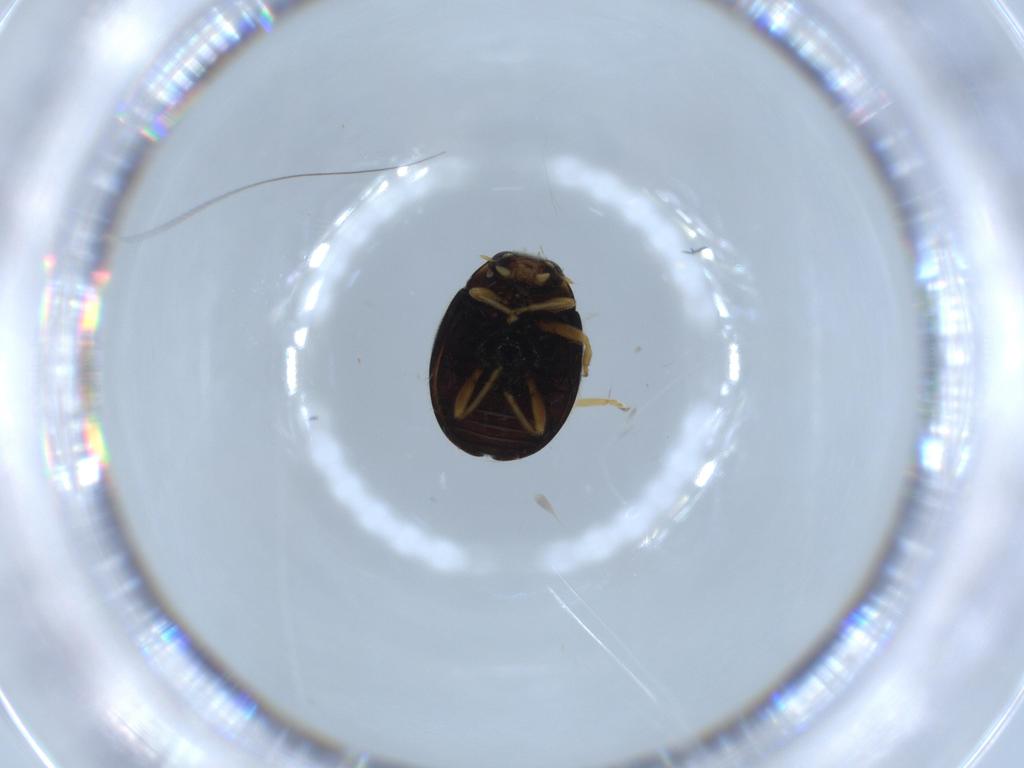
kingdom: Animalia
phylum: Arthropoda
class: Insecta
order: Coleoptera
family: Coccinellidae
